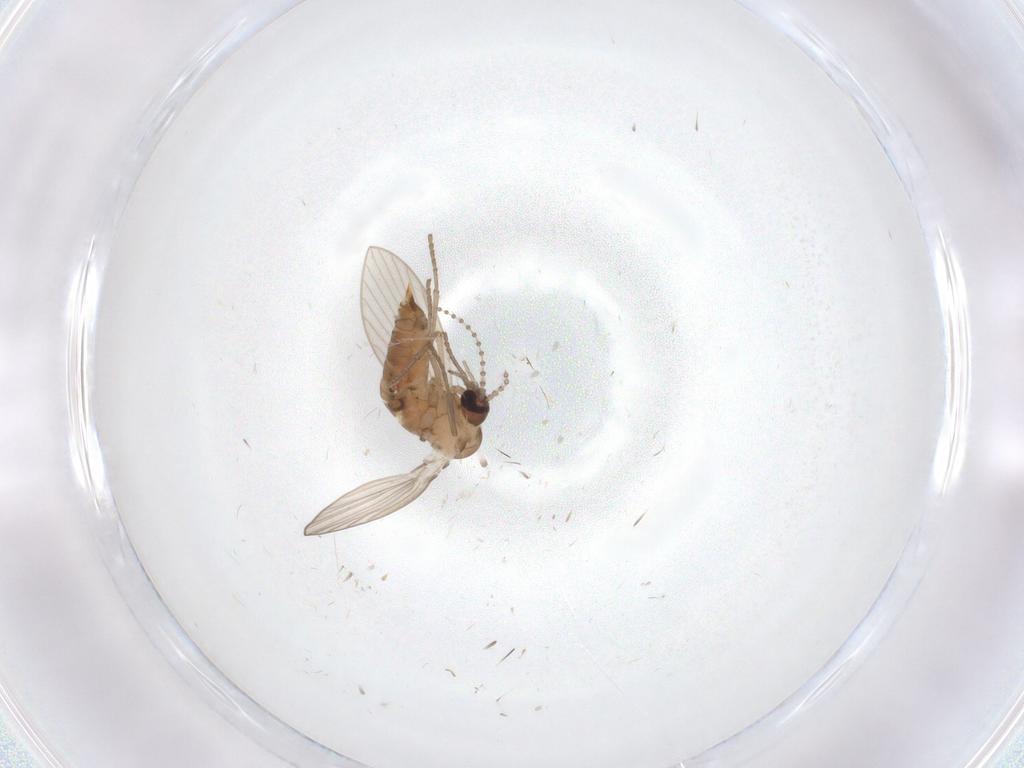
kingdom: Animalia
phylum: Arthropoda
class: Insecta
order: Diptera
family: Psychodidae
